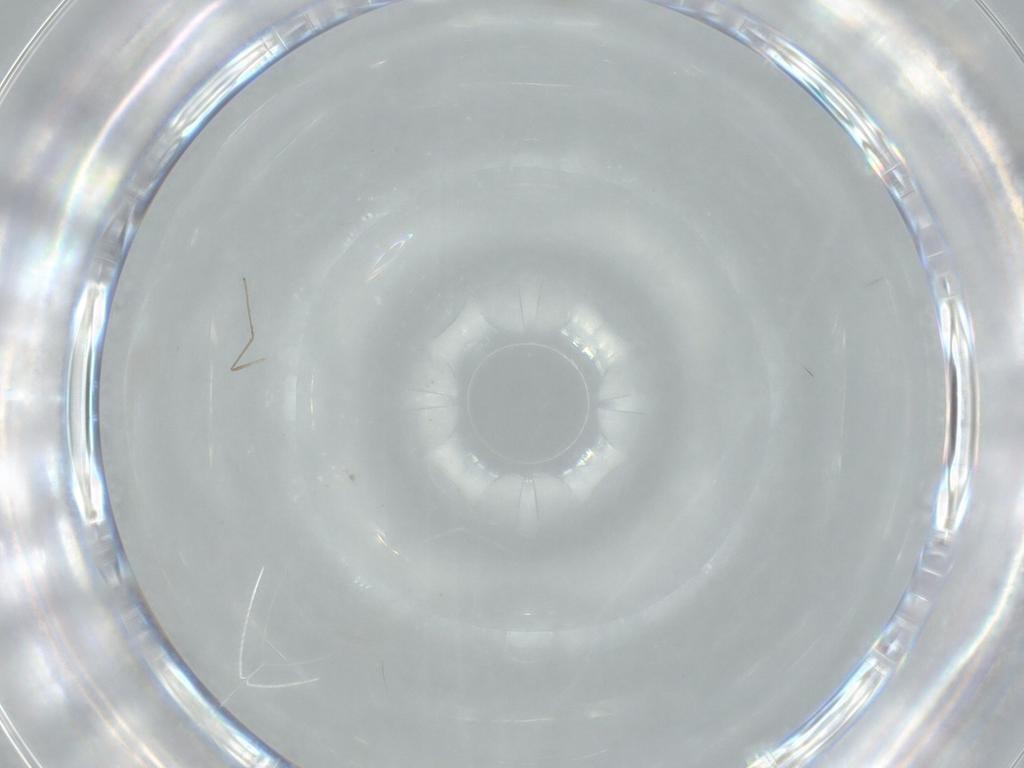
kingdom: Animalia
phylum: Arthropoda
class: Insecta
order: Diptera
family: Cecidomyiidae
